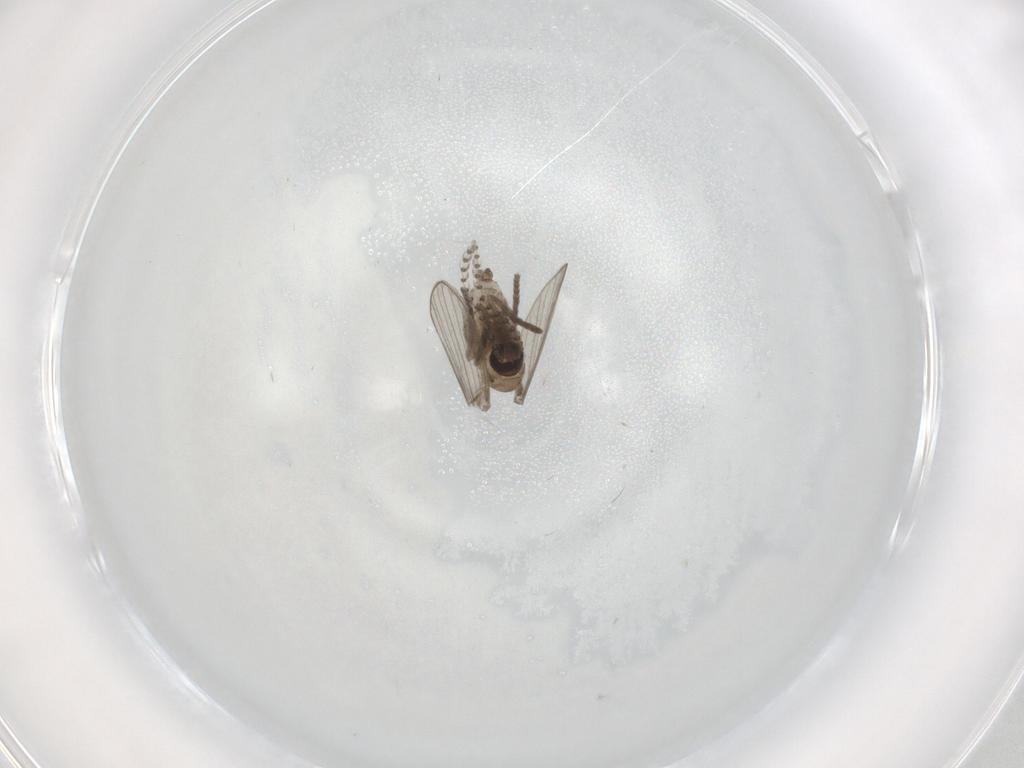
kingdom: Animalia
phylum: Arthropoda
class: Insecta
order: Diptera
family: Psychodidae
